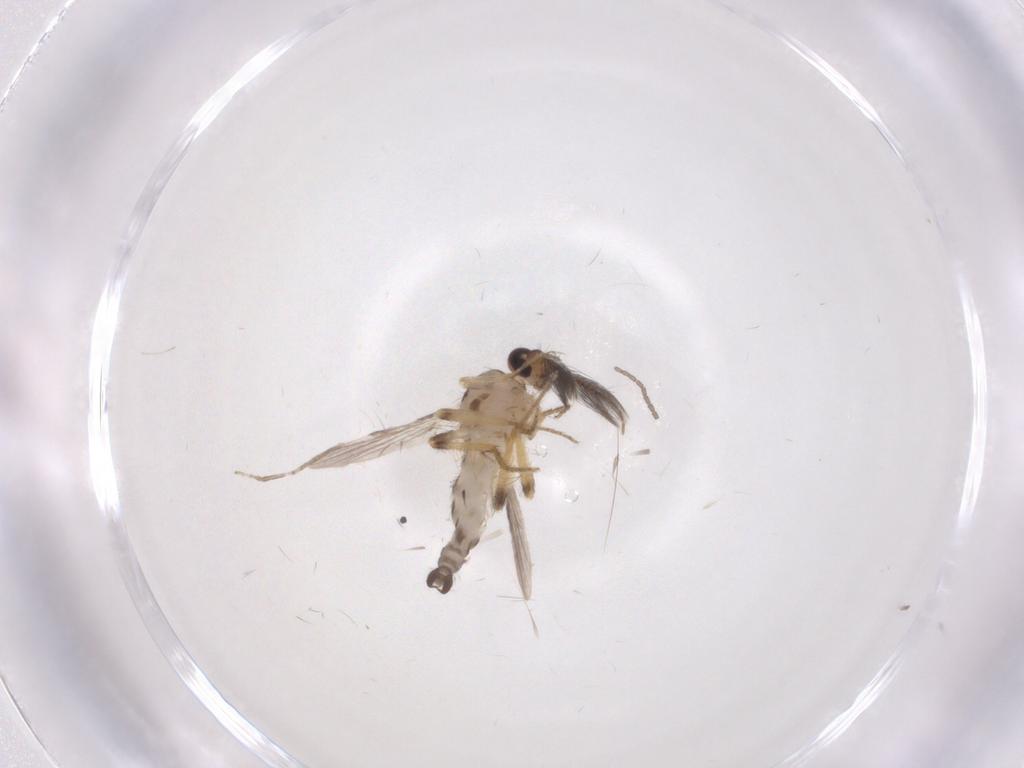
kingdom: Animalia
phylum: Arthropoda
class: Insecta
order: Diptera
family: Cecidomyiidae
